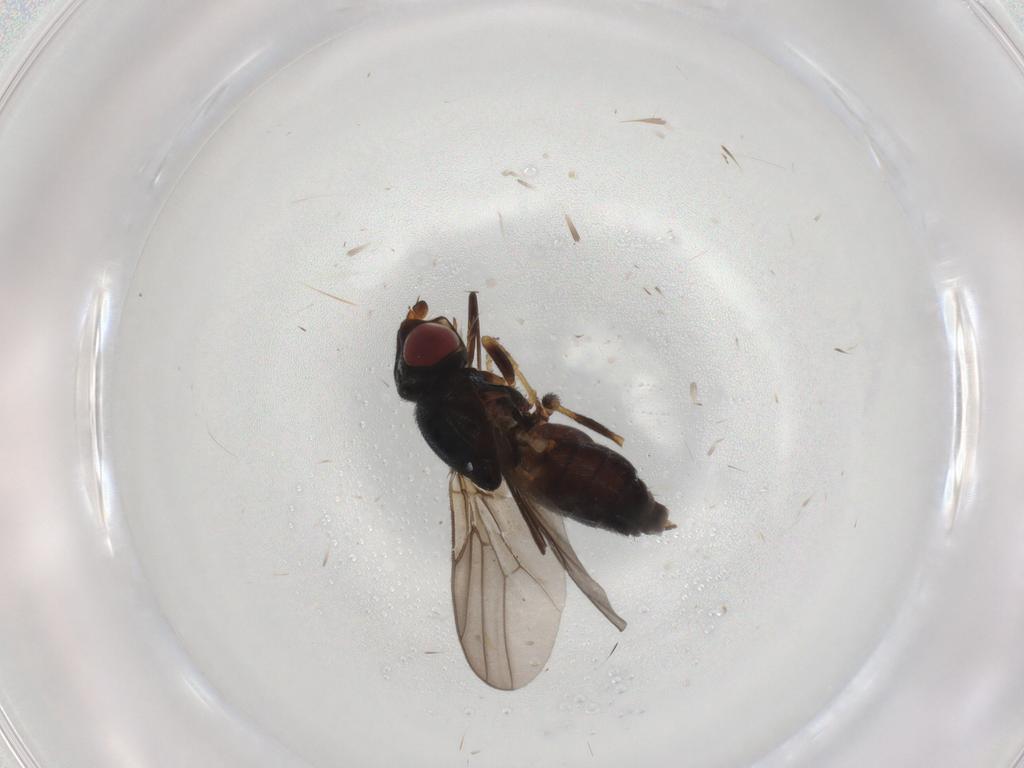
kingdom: Animalia
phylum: Arthropoda
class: Insecta
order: Diptera
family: Chloropidae
